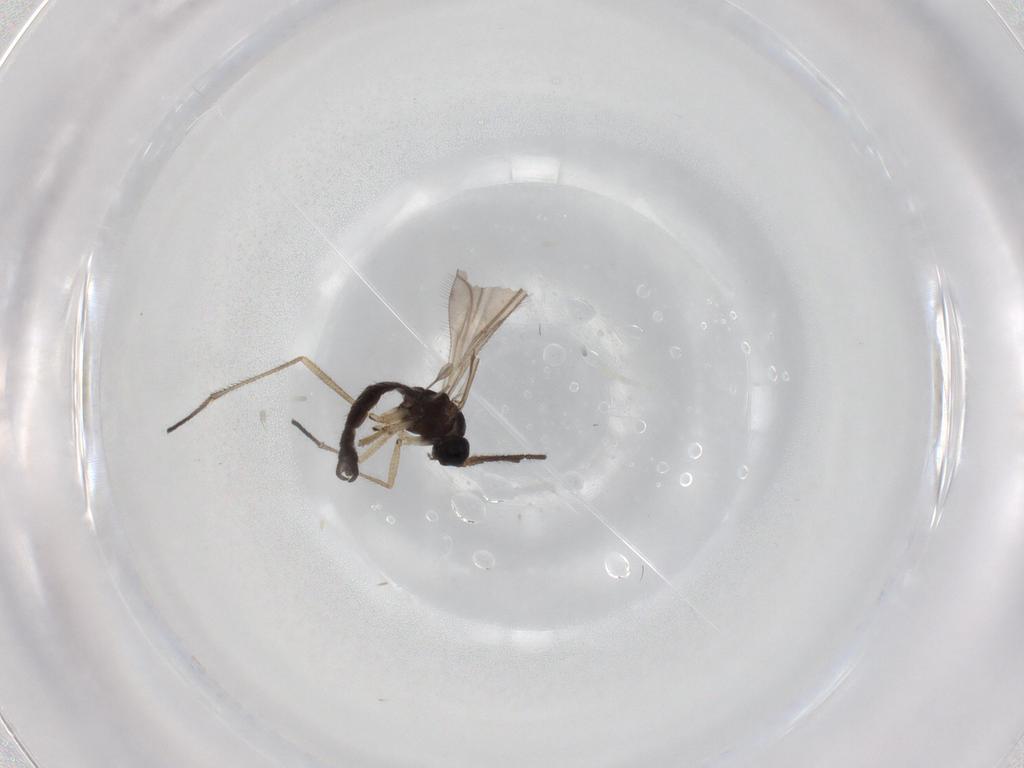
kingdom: Animalia
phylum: Arthropoda
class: Insecta
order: Diptera
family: Sciaridae
